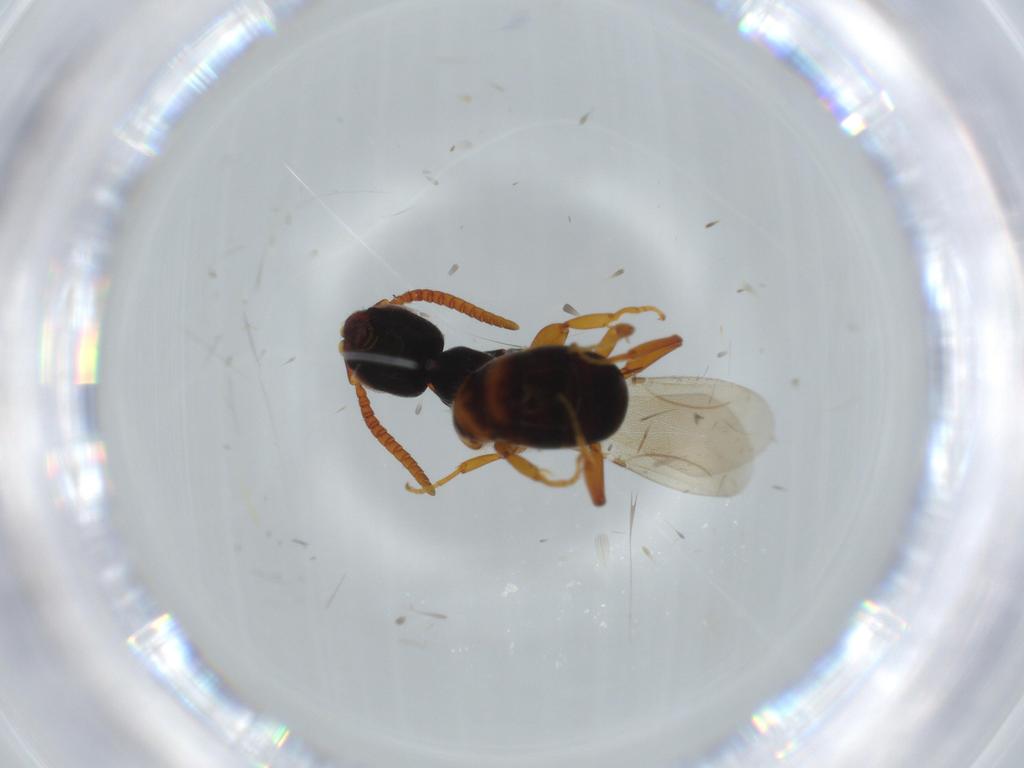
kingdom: Animalia
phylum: Arthropoda
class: Insecta
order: Hymenoptera
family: Bethylidae
